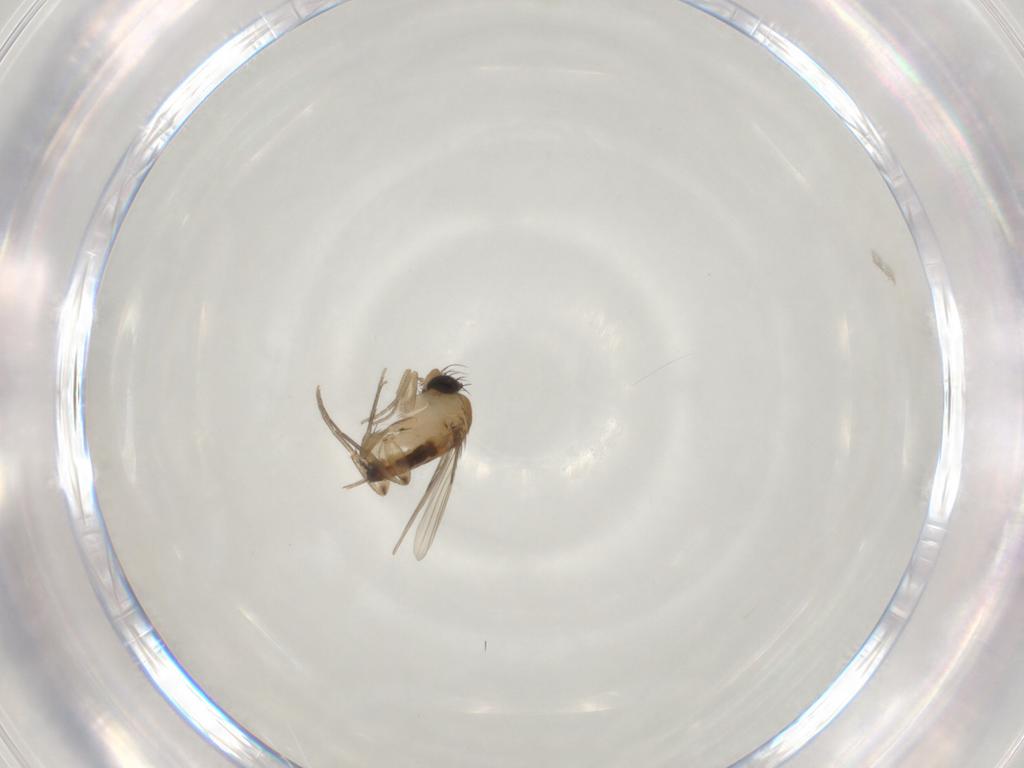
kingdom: Animalia
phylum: Arthropoda
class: Insecta
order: Diptera
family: Phoridae
